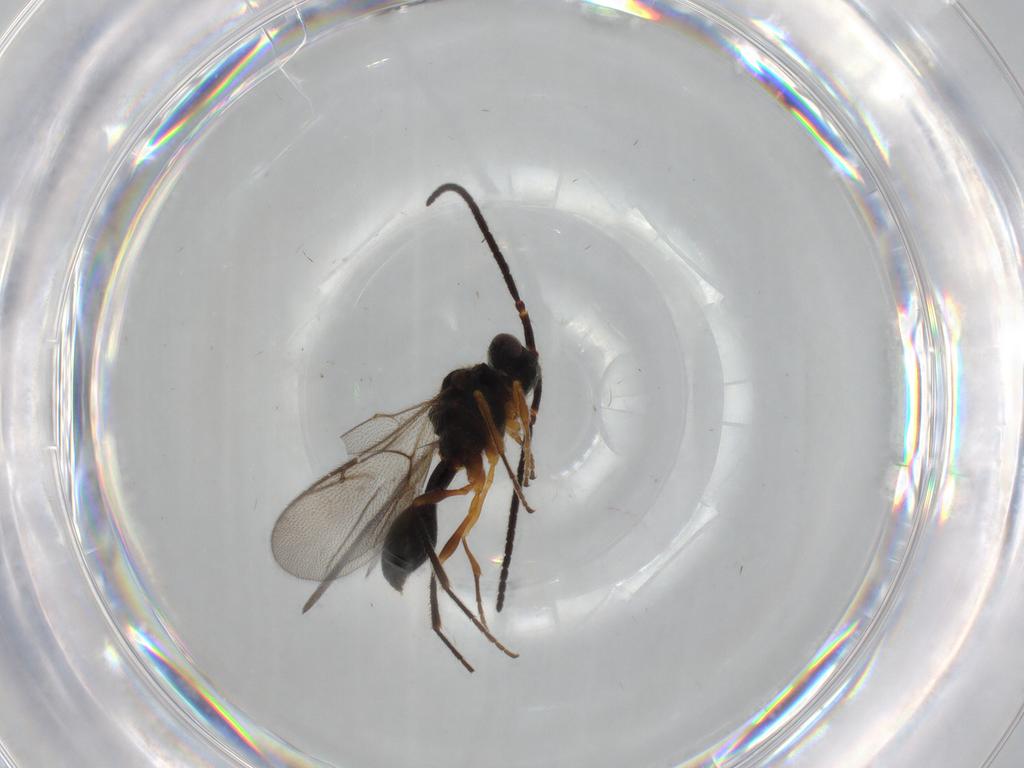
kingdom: Animalia
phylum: Arthropoda
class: Insecta
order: Hymenoptera
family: Diapriidae
